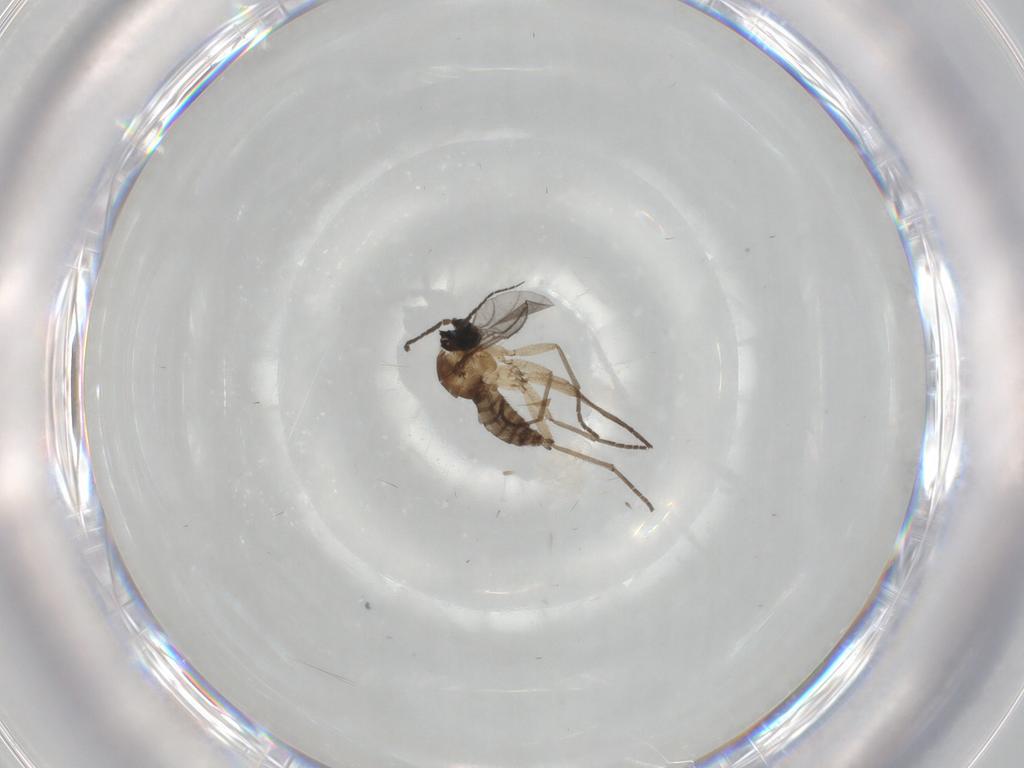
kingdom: Animalia
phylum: Arthropoda
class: Insecta
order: Diptera
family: Sciaridae
